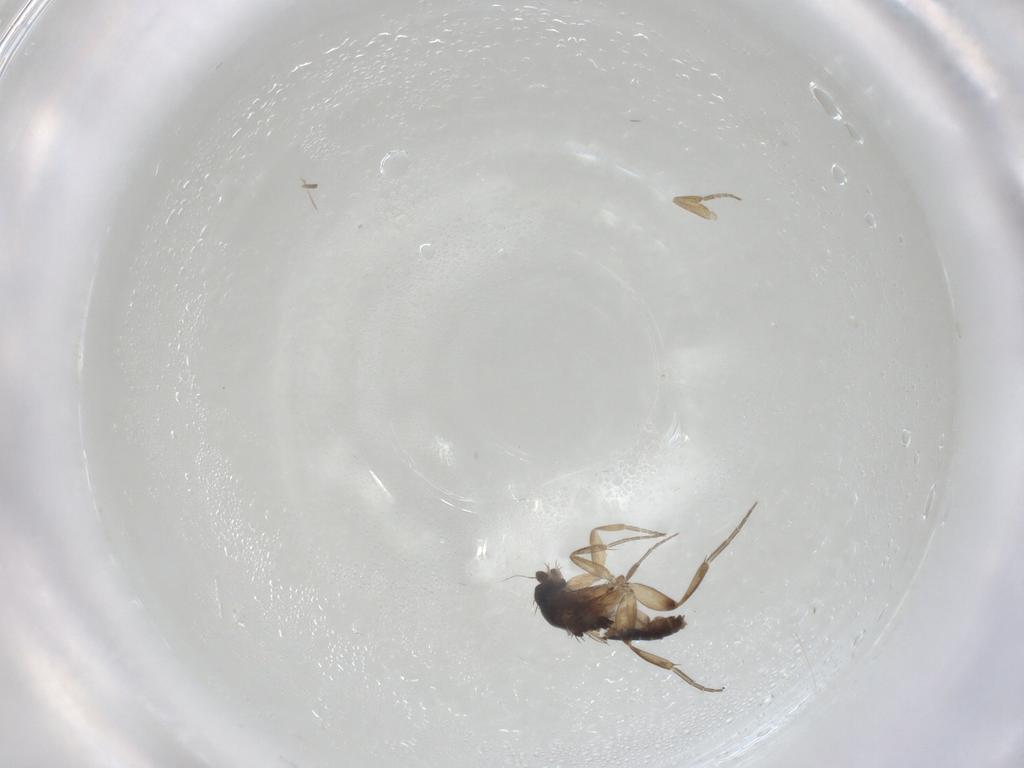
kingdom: Animalia
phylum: Arthropoda
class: Insecta
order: Diptera
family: Phoridae
